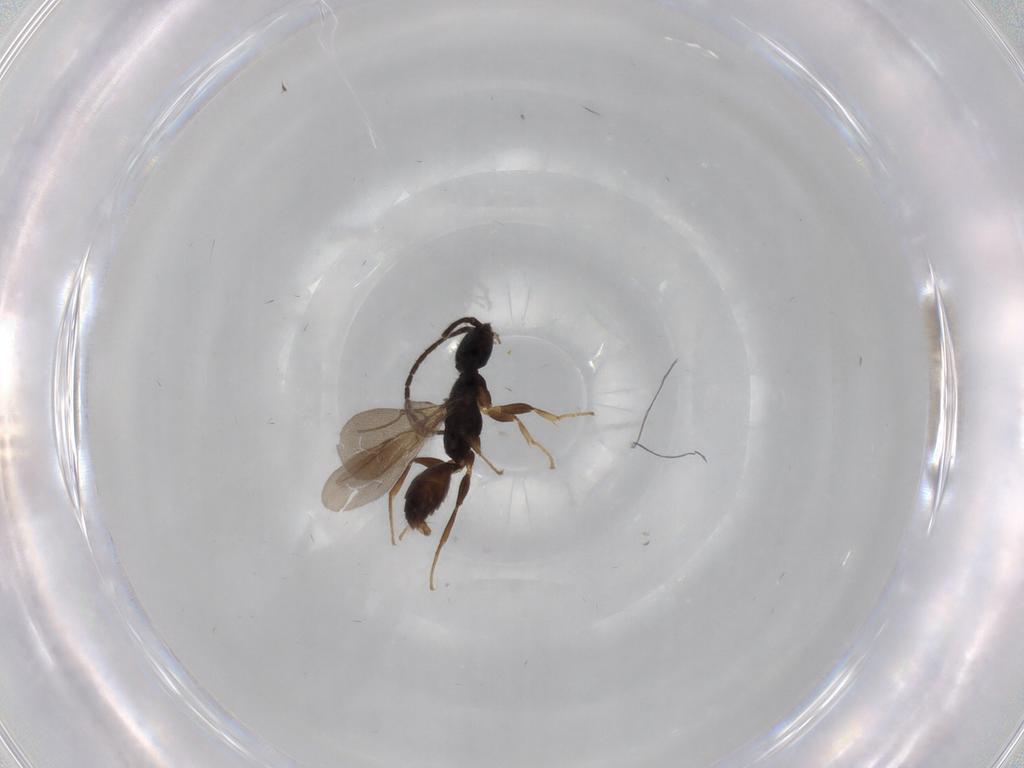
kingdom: Animalia
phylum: Arthropoda
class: Insecta
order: Hymenoptera
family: Bethylidae
